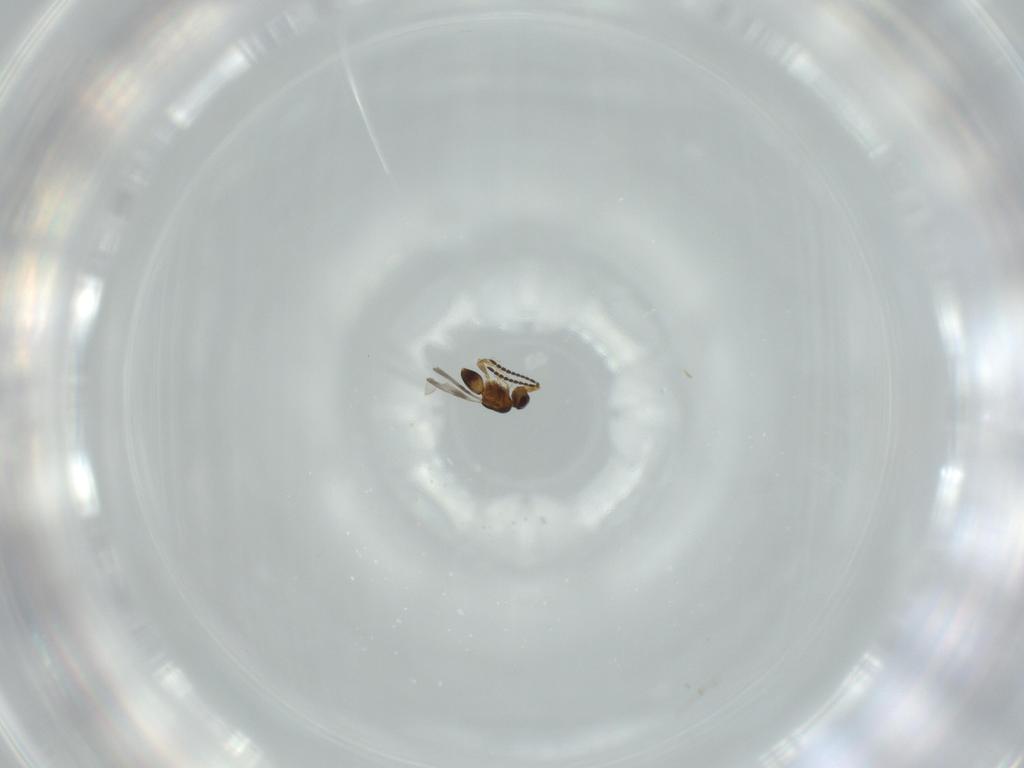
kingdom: Animalia
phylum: Arthropoda
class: Insecta
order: Hymenoptera
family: Ceraphronidae
